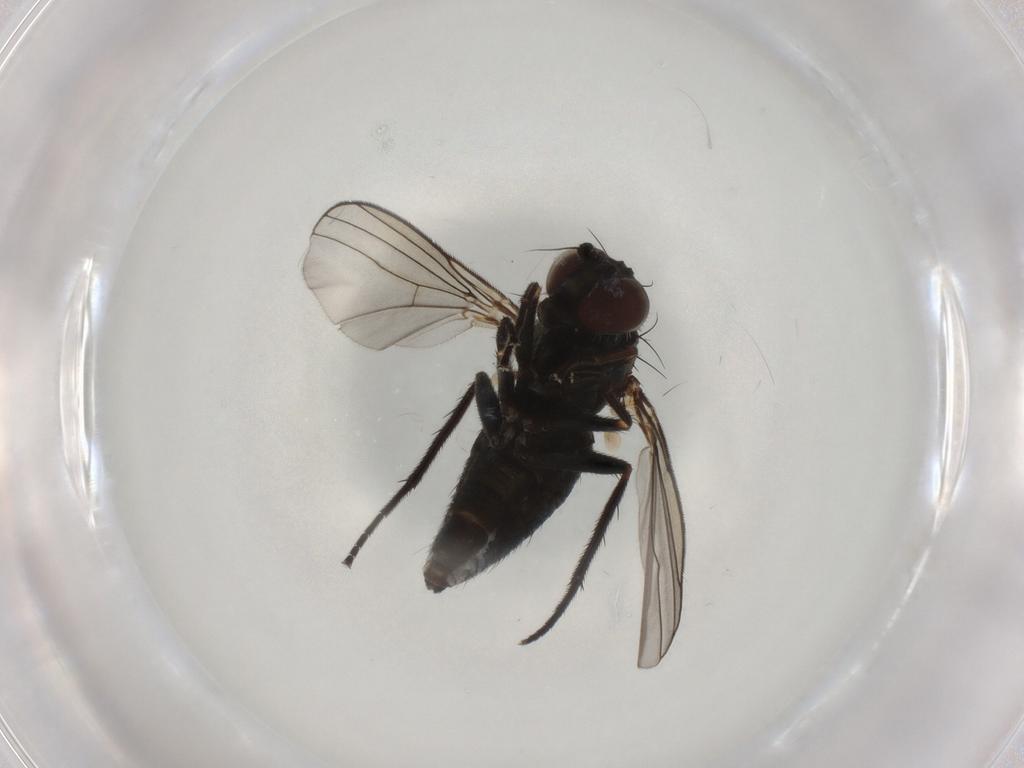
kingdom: Animalia
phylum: Arthropoda
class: Insecta
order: Diptera
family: Dolichopodidae
